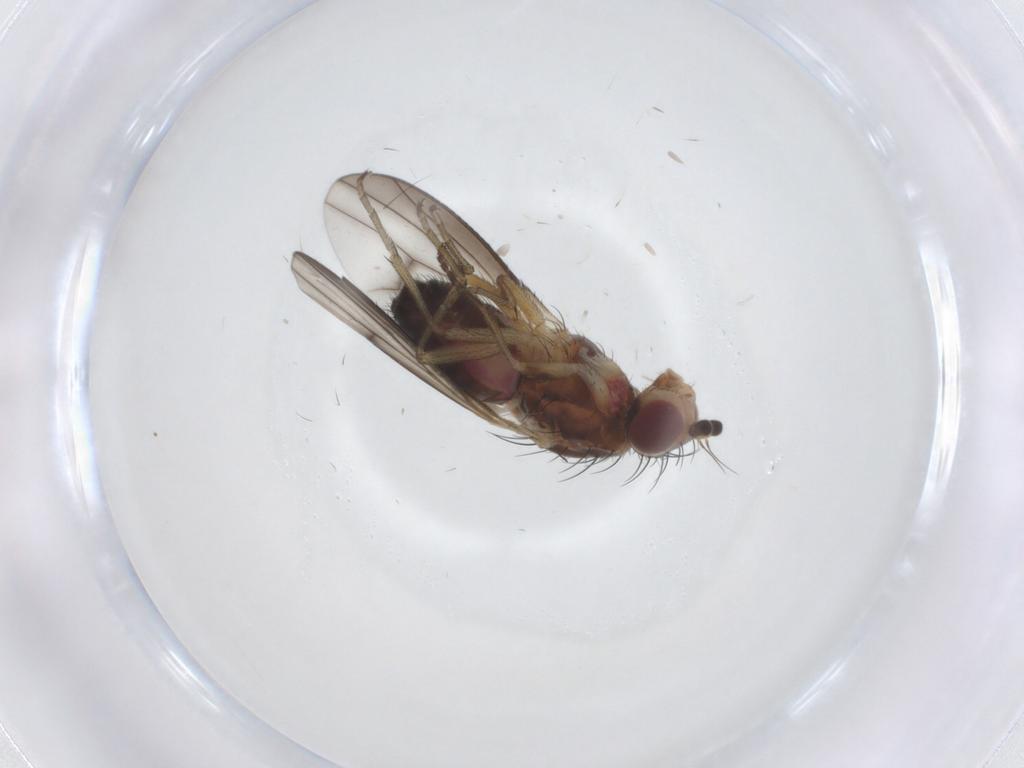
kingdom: Animalia
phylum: Arthropoda
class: Insecta
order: Diptera
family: Heleomyzidae
